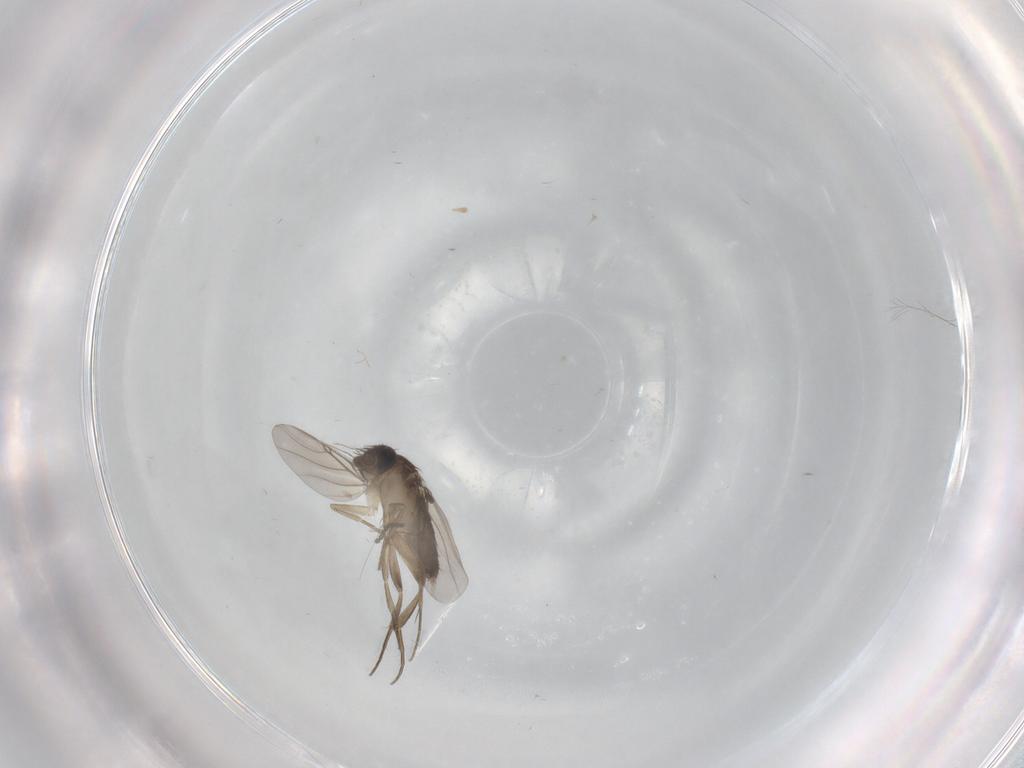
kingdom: Animalia
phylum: Arthropoda
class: Insecta
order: Diptera
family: Phoridae
